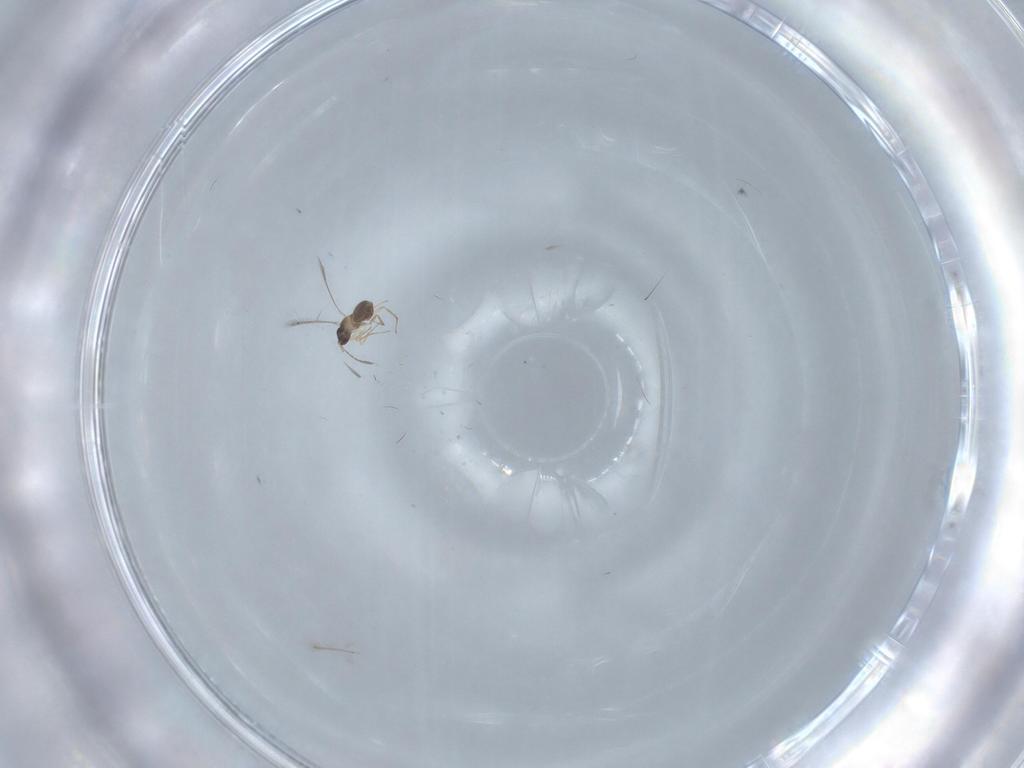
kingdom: Animalia
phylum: Arthropoda
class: Insecta
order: Hymenoptera
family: Mymaridae
